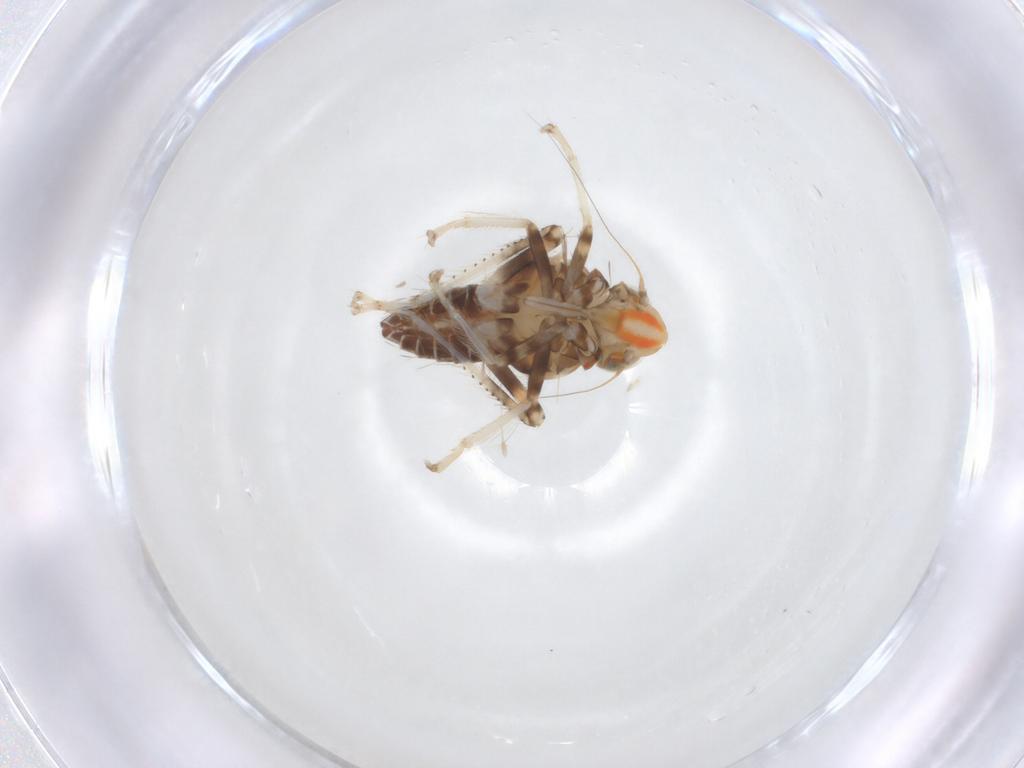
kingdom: Animalia
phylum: Arthropoda
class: Insecta
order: Hemiptera
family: Cicadellidae
